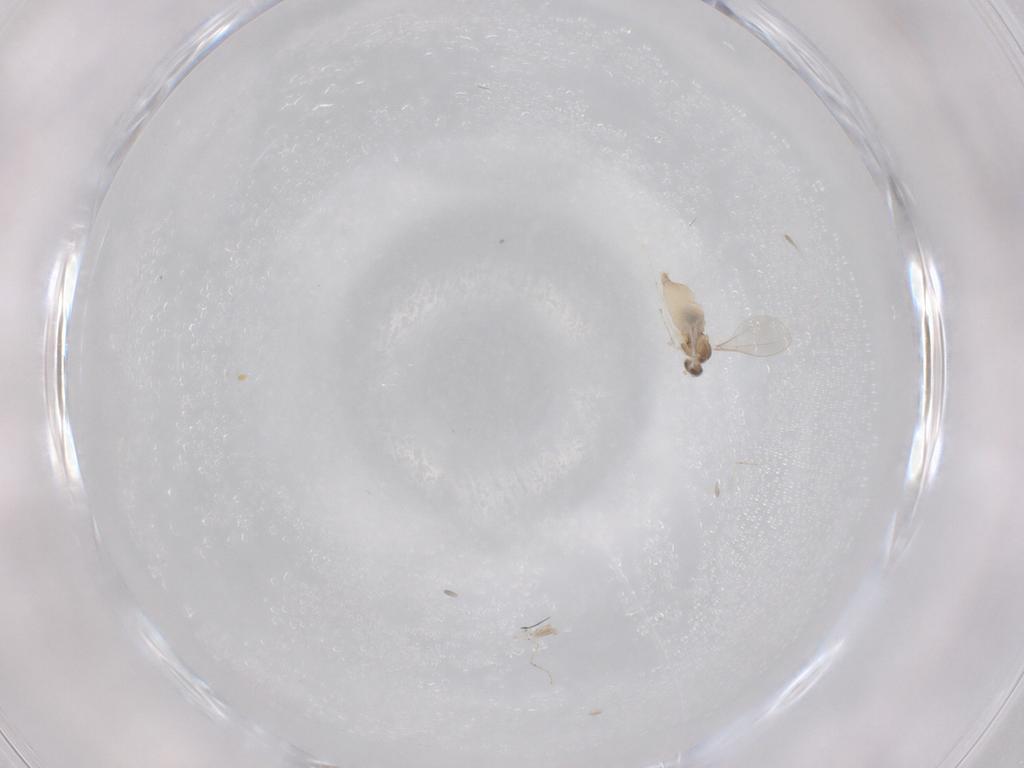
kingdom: Animalia
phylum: Arthropoda
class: Insecta
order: Diptera
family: Cecidomyiidae
